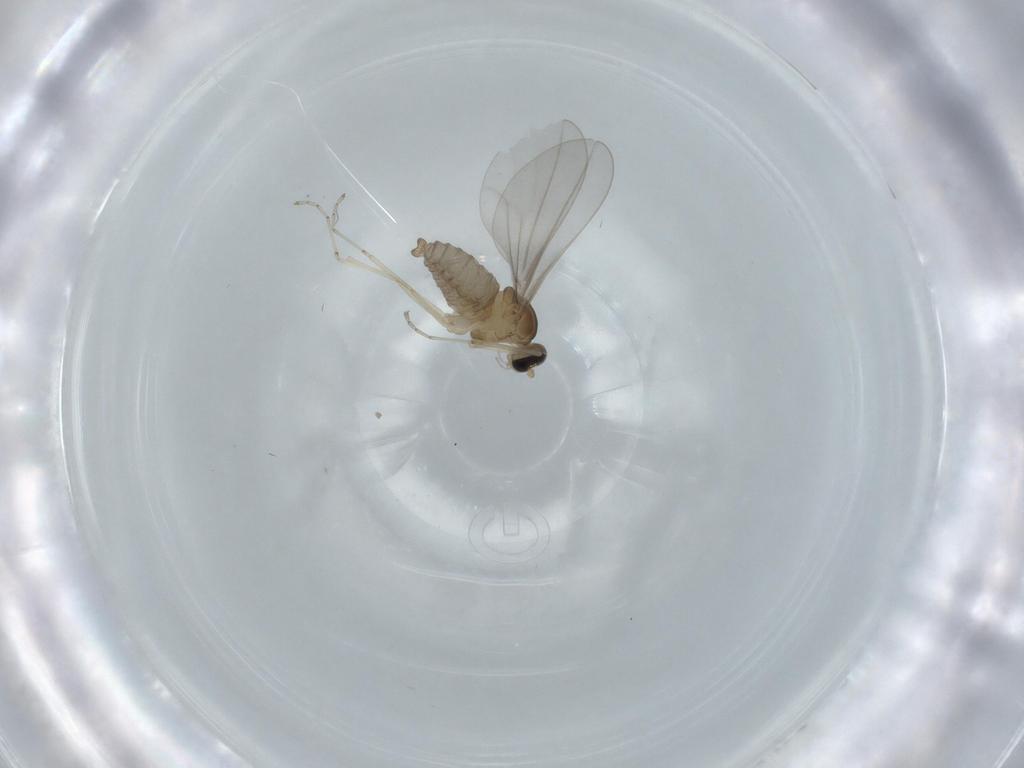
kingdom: Animalia
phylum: Arthropoda
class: Insecta
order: Diptera
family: Cecidomyiidae
